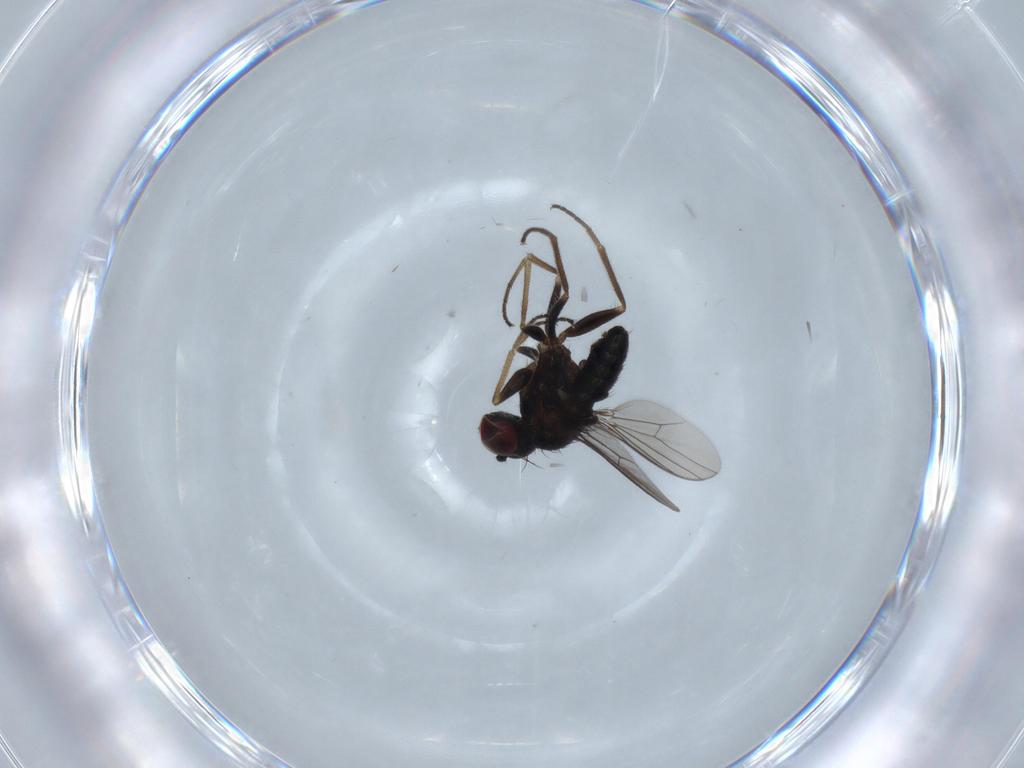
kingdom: Animalia
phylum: Arthropoda
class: Insecta
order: Diptera
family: Dolichopodidae
